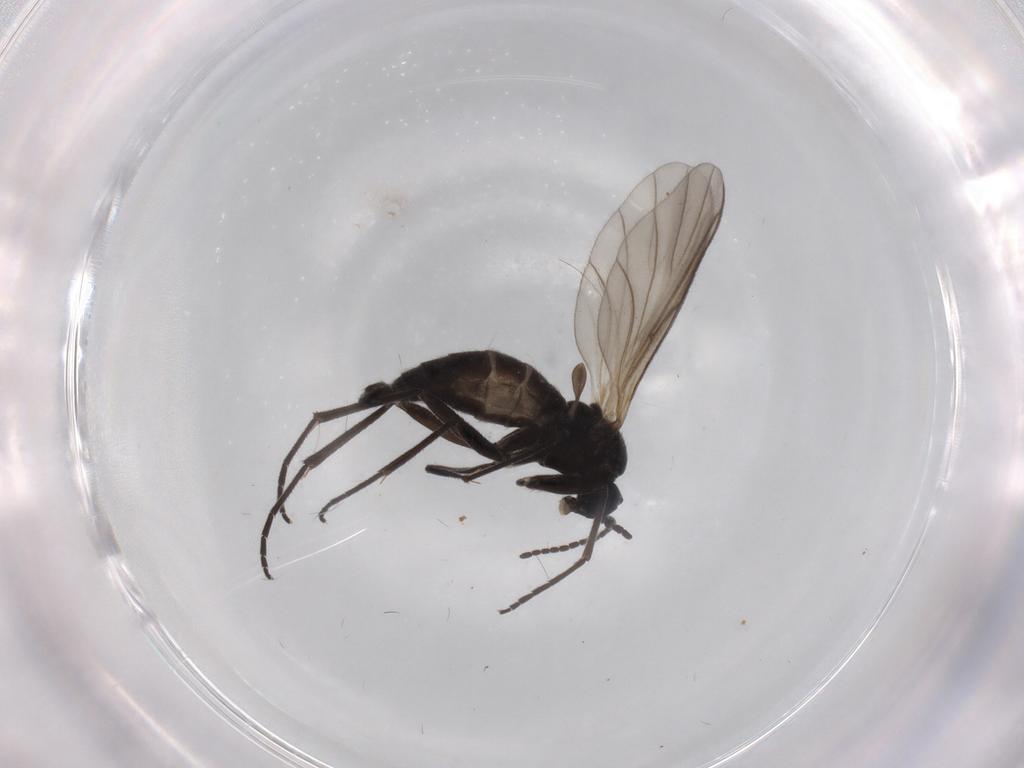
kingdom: Animalia
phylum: Arthropoda
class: Insecta
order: Diptera
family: Sciaridae
